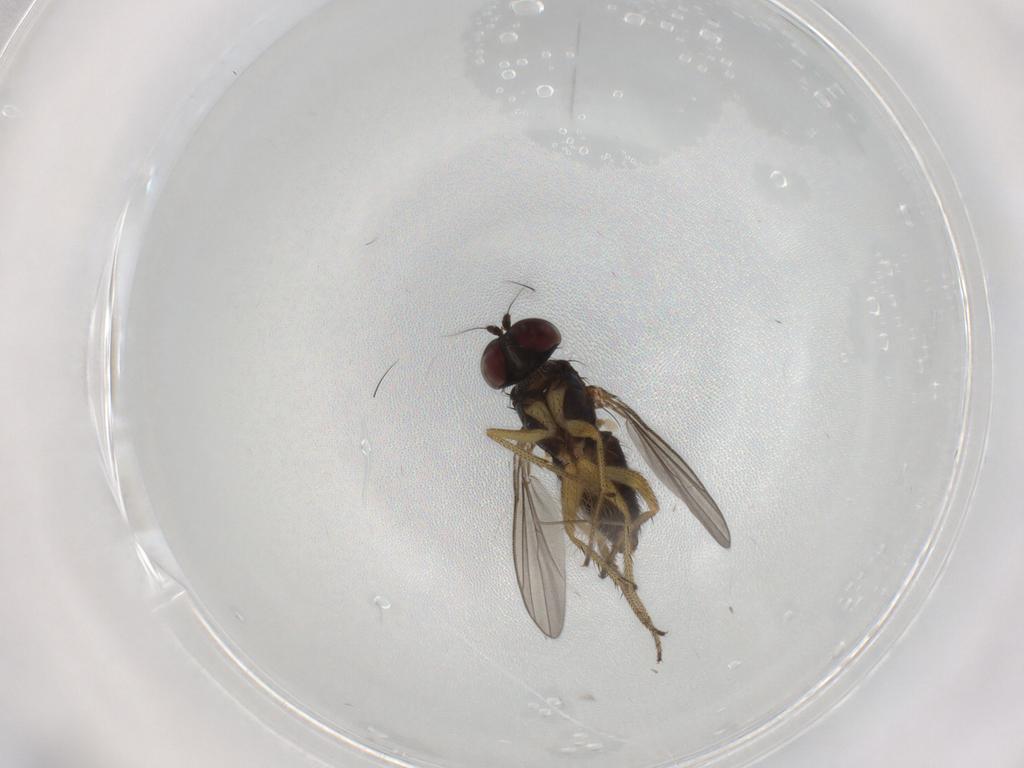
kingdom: Animalia
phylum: Arthropoda
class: Insecta
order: Diptera
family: Chironomidae
